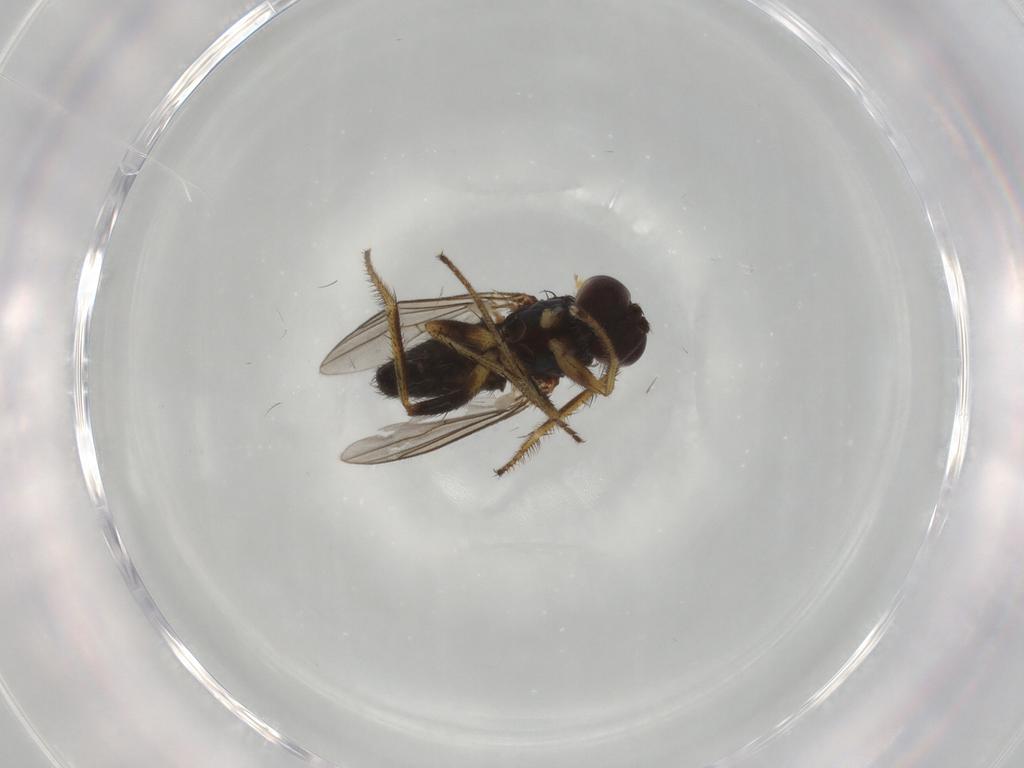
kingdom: Animalia
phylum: Arthropoda
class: Insecta
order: Diptera
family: Dolichopodidae
